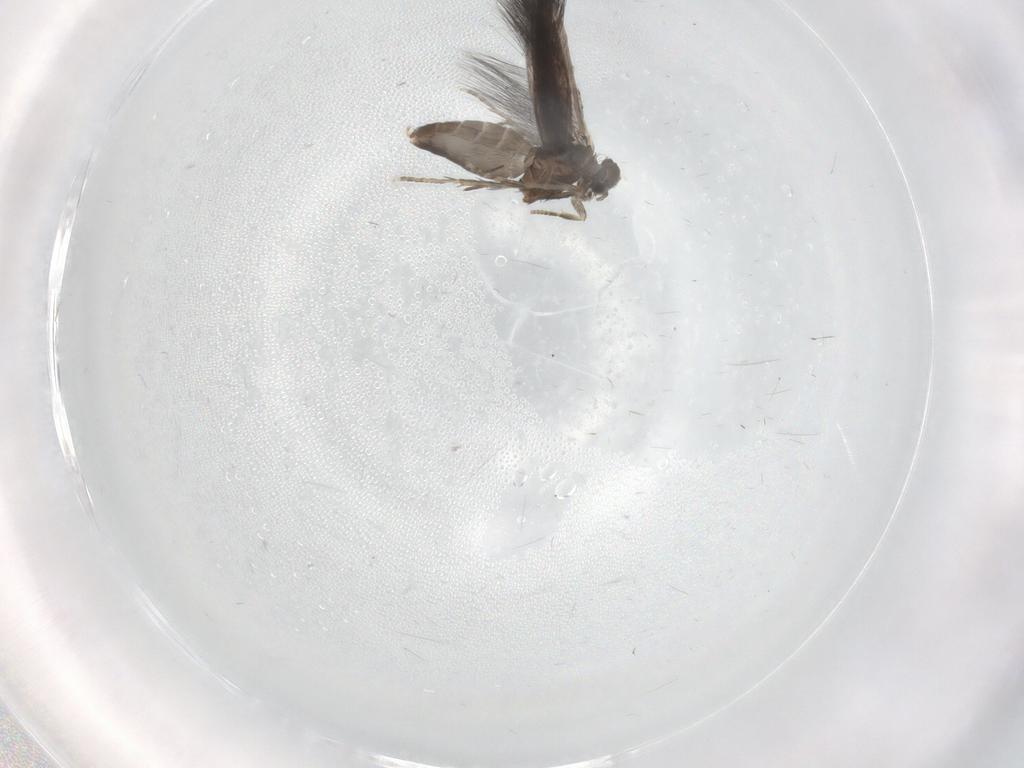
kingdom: Animalia
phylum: Arthropoda
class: Insecta
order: Trichoptera
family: Hydroptilidae
